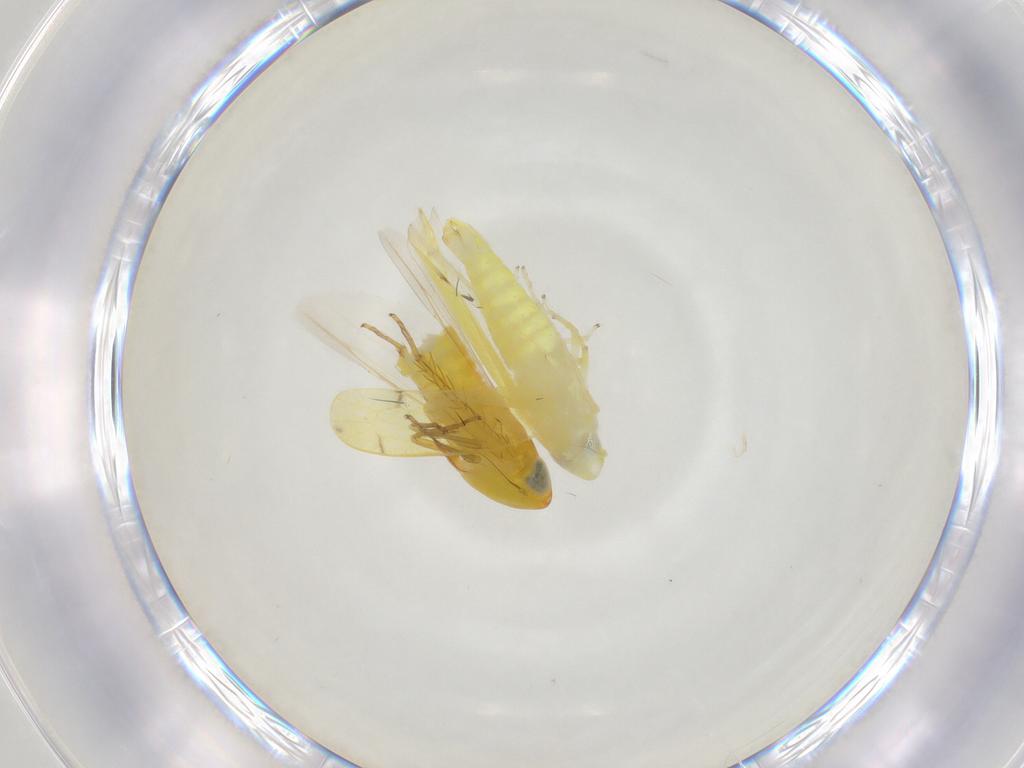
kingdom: Animalia
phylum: Arthropoda
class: Insecta
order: Hemiptera
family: Cicadellidae
